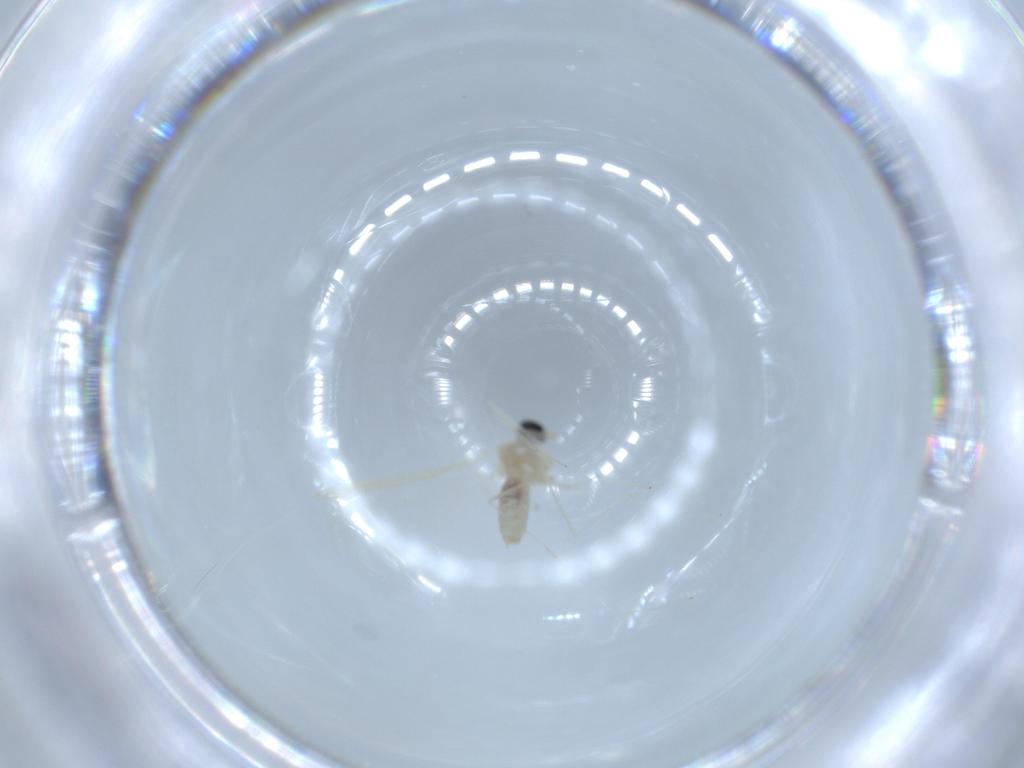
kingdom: Animalia
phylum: Arthropoda
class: Insecta
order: Diptera
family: Cecidomyiidae
